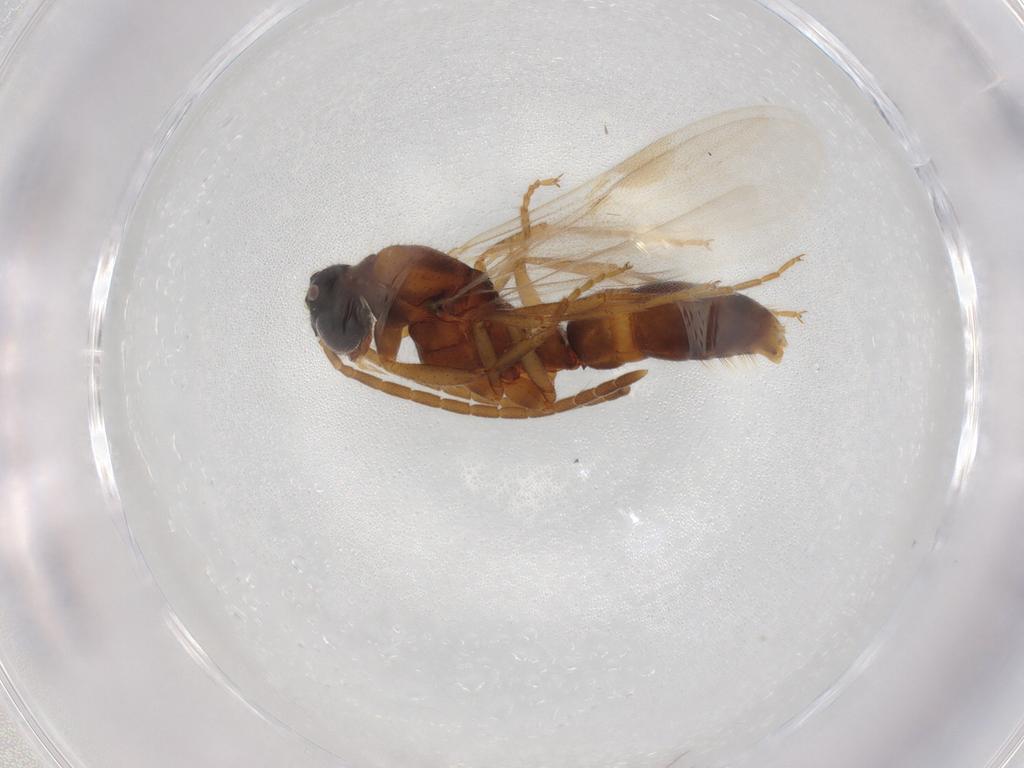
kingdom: Animalia
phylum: Arthropoda
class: Insecta
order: Hymenoptera
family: Formicidae
